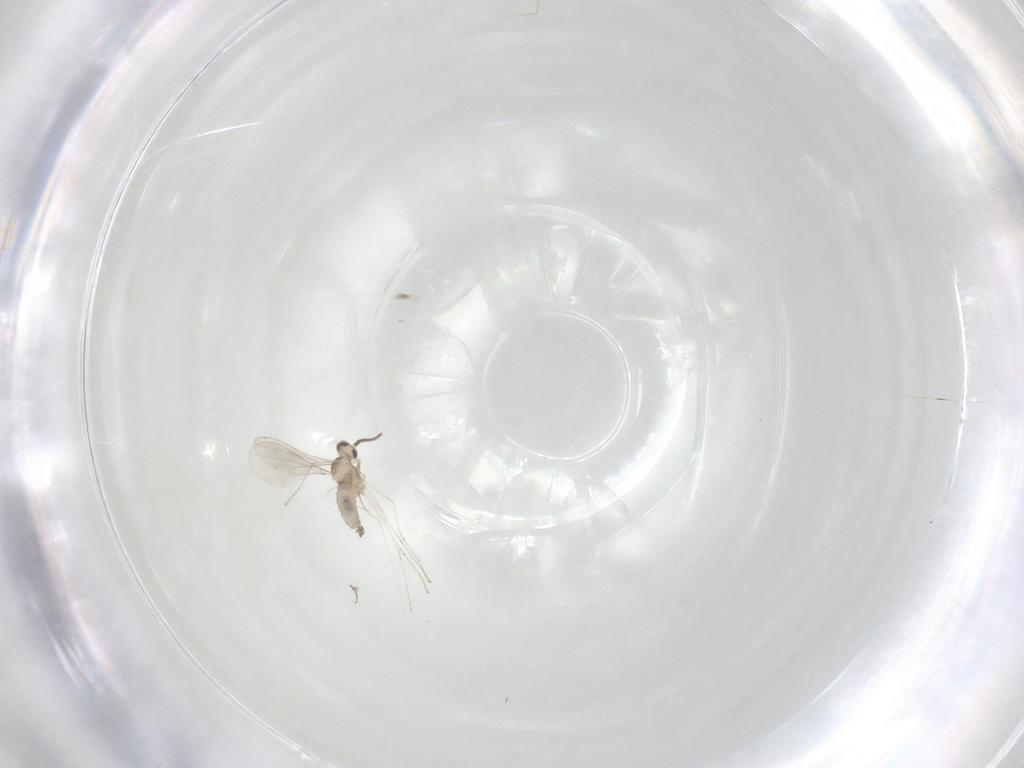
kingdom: Animalia
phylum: Arthropoda
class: Insecta
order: Diptera
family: Cecidomyiidae
